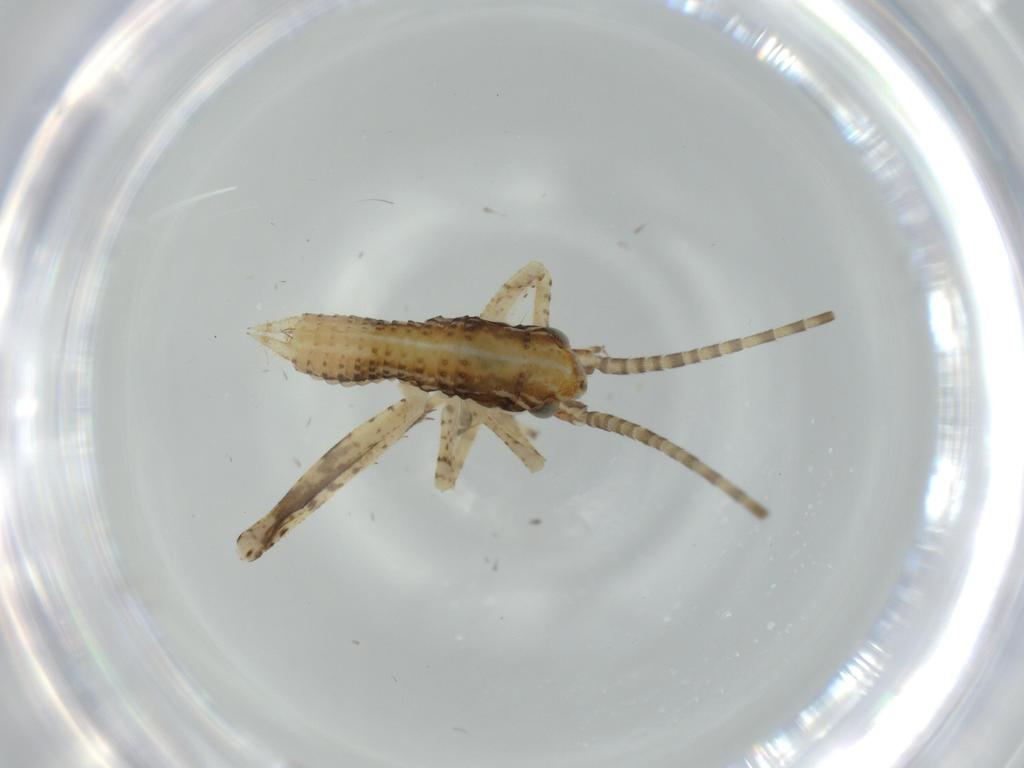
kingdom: Animalia
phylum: Arthropoda
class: Insecta
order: Orthoptera
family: Gryllidae
